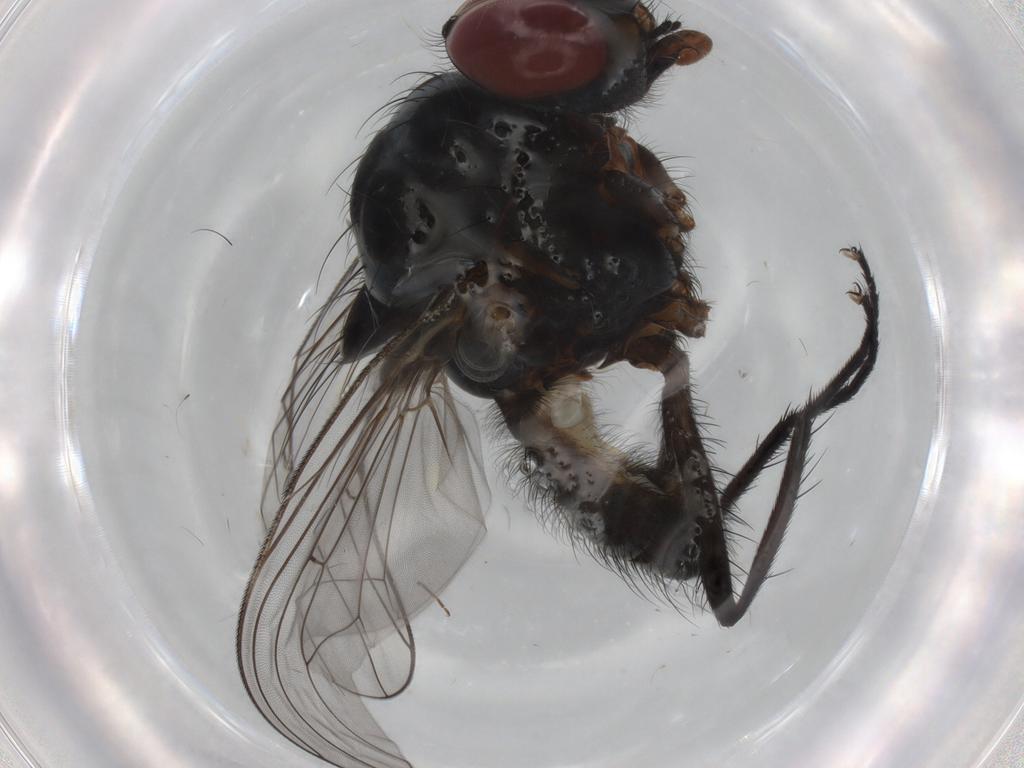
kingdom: Animalia
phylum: Arthropoda
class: Insecta
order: Diptera
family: Anthomyiidae
